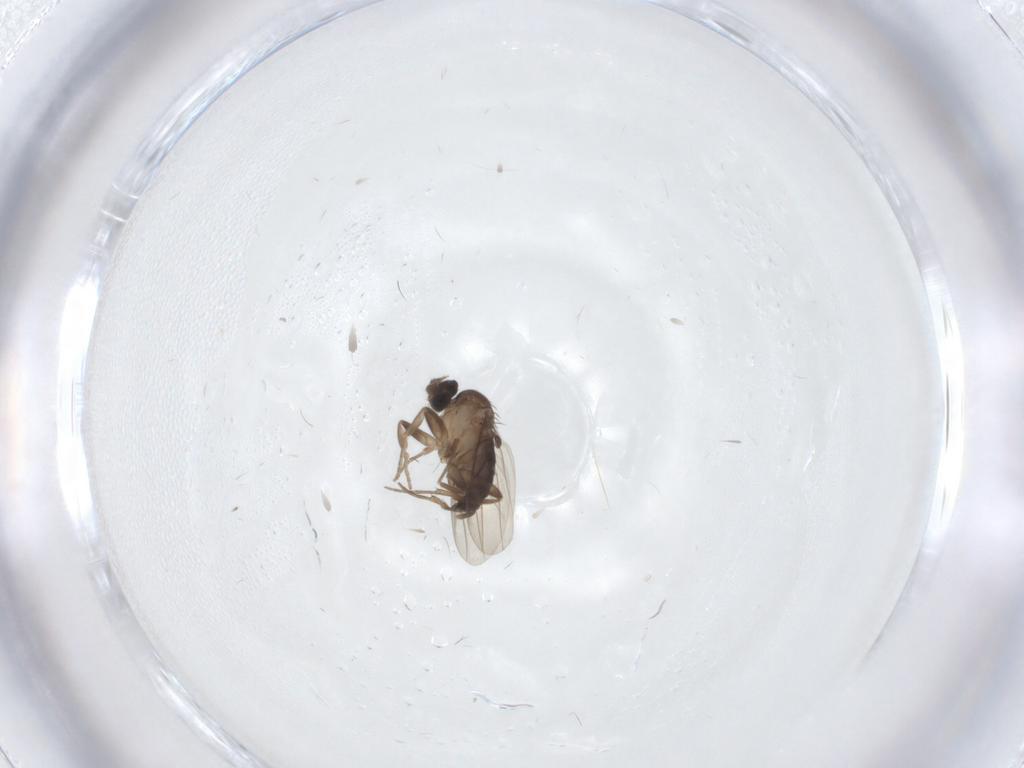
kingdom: Animalia
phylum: Arthropoda
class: Insecta
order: Diptera
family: Phoridae
